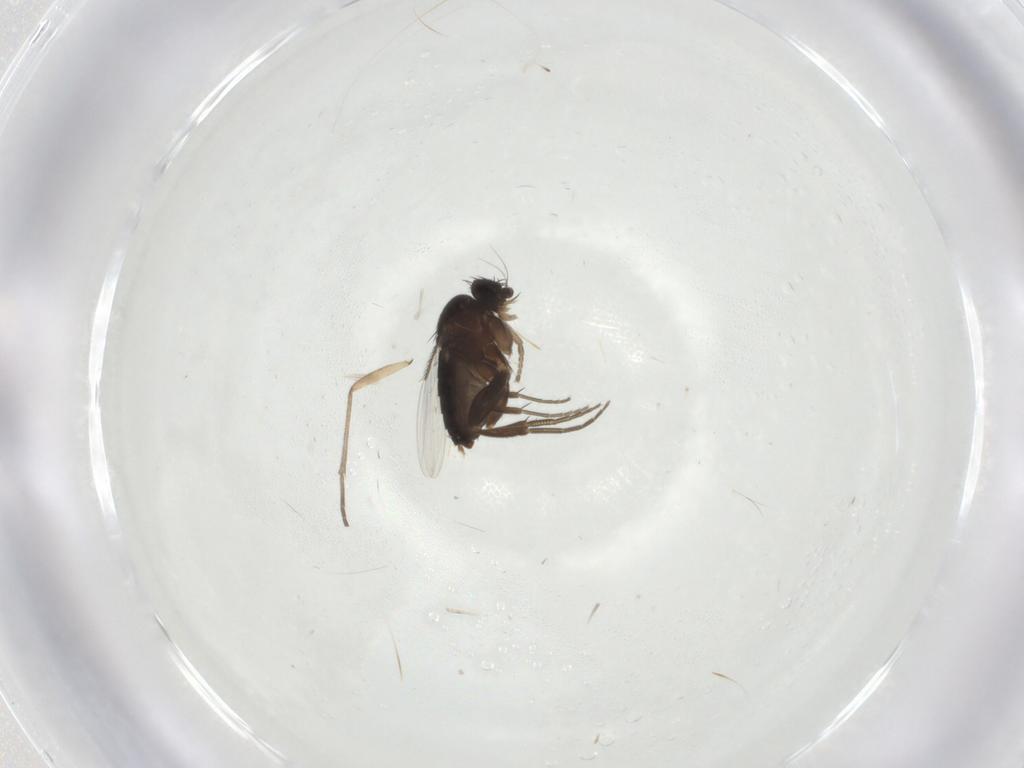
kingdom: Animalia
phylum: Arthropoda
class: Insecta
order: Diptera
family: Phoridae
